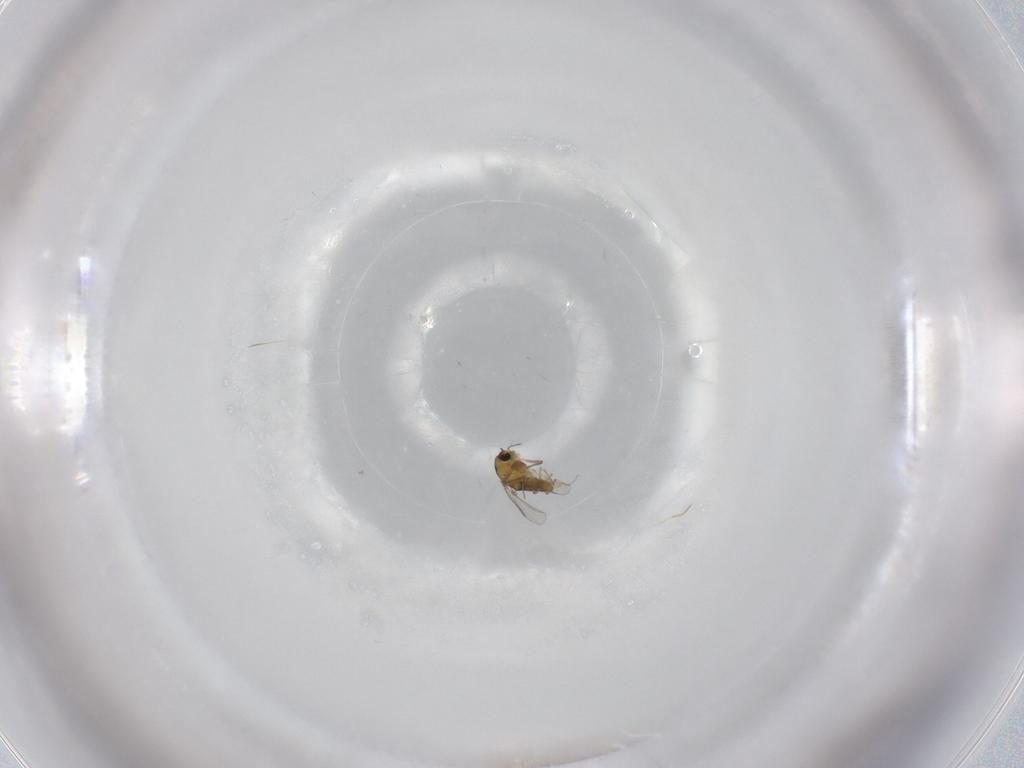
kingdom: Animalia
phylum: Arthropoda
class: Insecta
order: Diptera
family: Chironomidae
